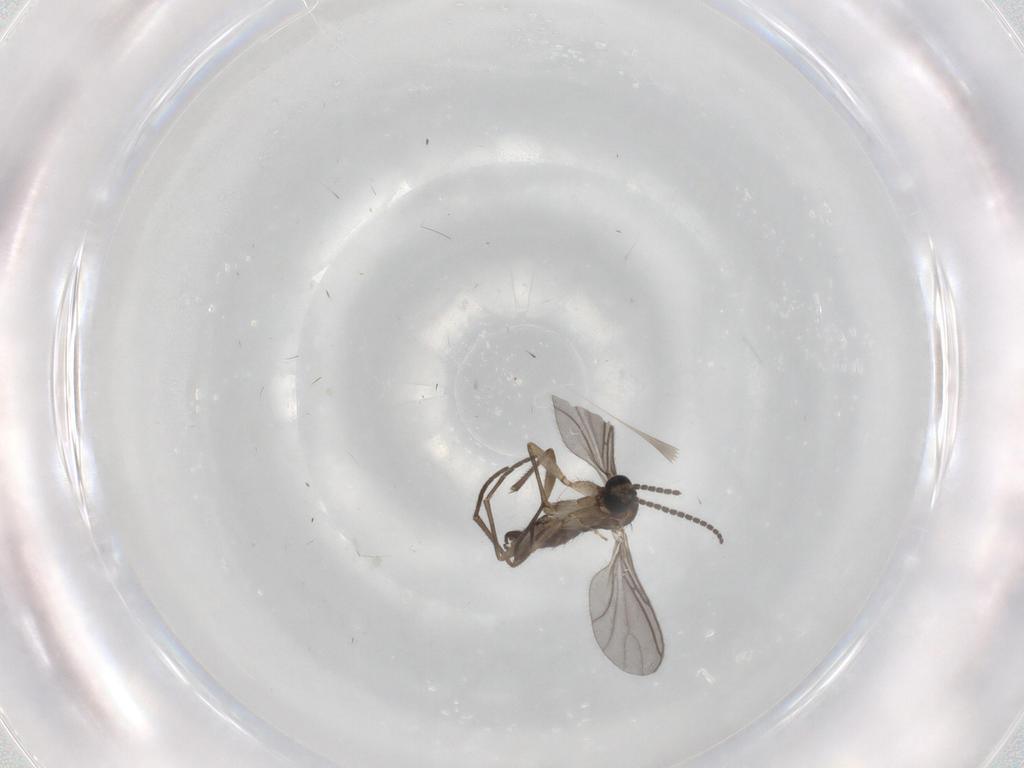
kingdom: Animalia
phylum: Arthropoda
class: Insecta
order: Diptera
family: Sciaridae
